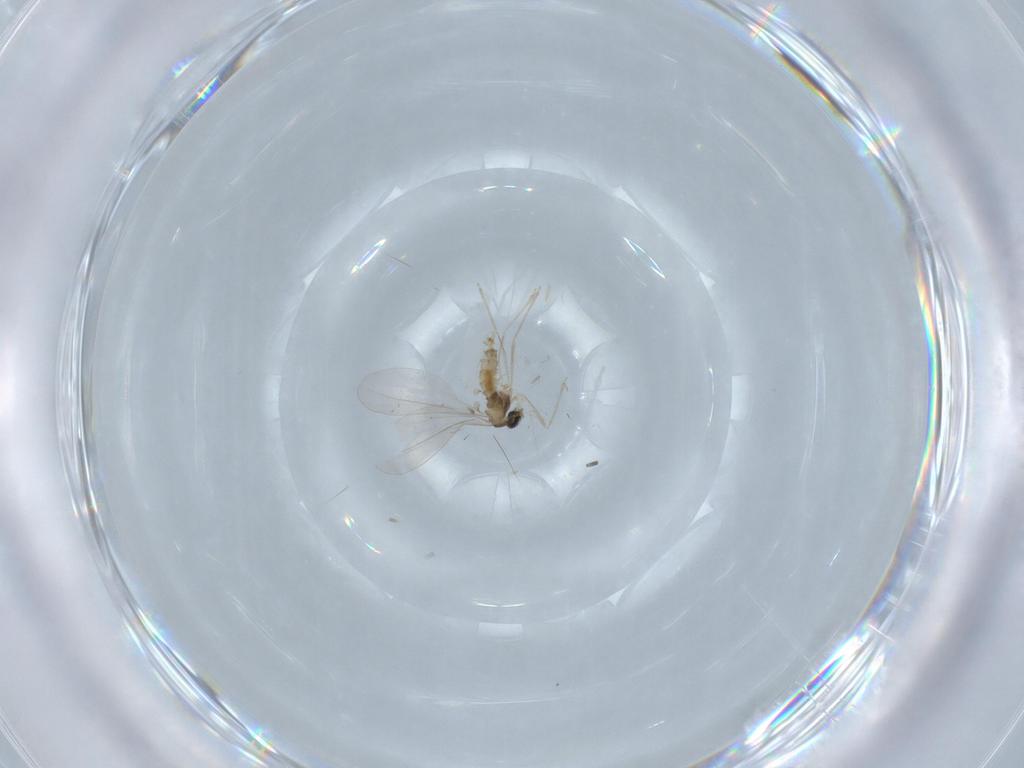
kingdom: Animalia
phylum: Arthropoda
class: Insecta
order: Diptera
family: Cecidomyiidae
